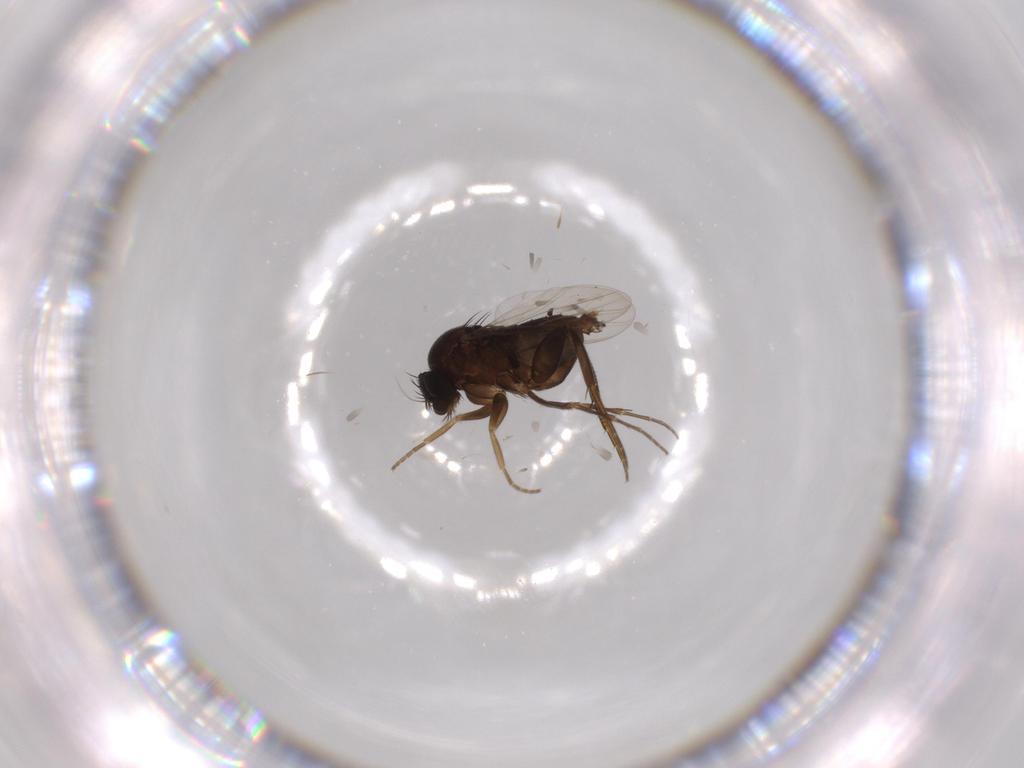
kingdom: Animalia
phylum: Arthropoda
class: Insecta
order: Diptera
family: Phoridae
